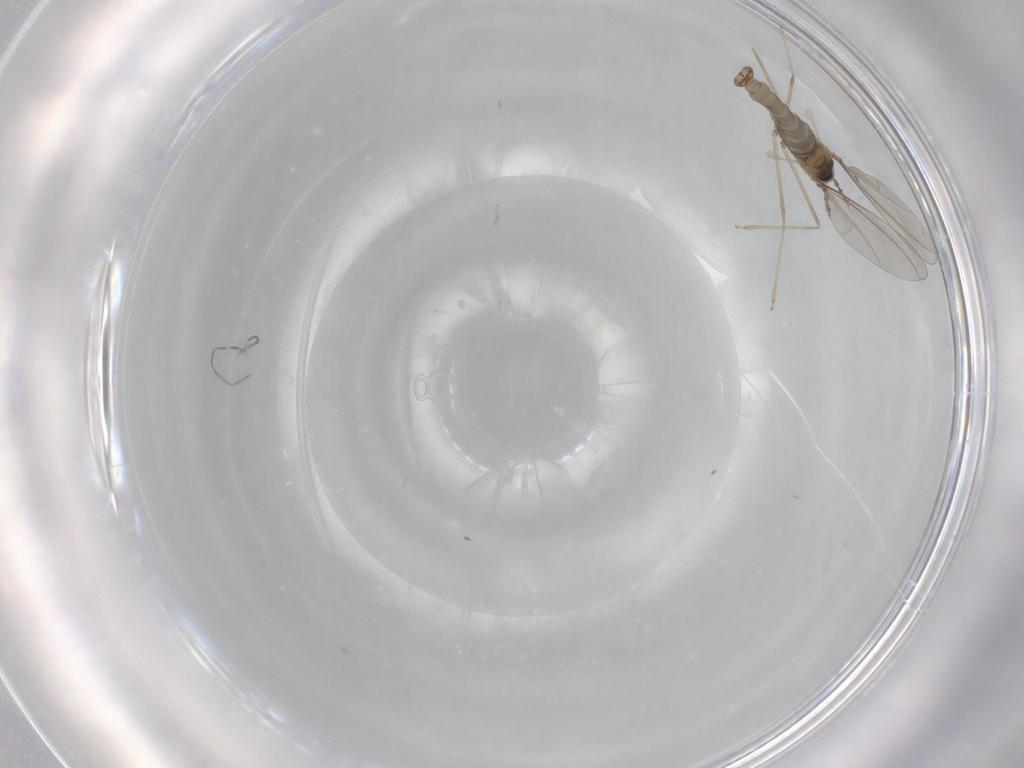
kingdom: Animalia
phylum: Arthropoda
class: Insecta
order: Diptera
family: Cecidomyiidae
